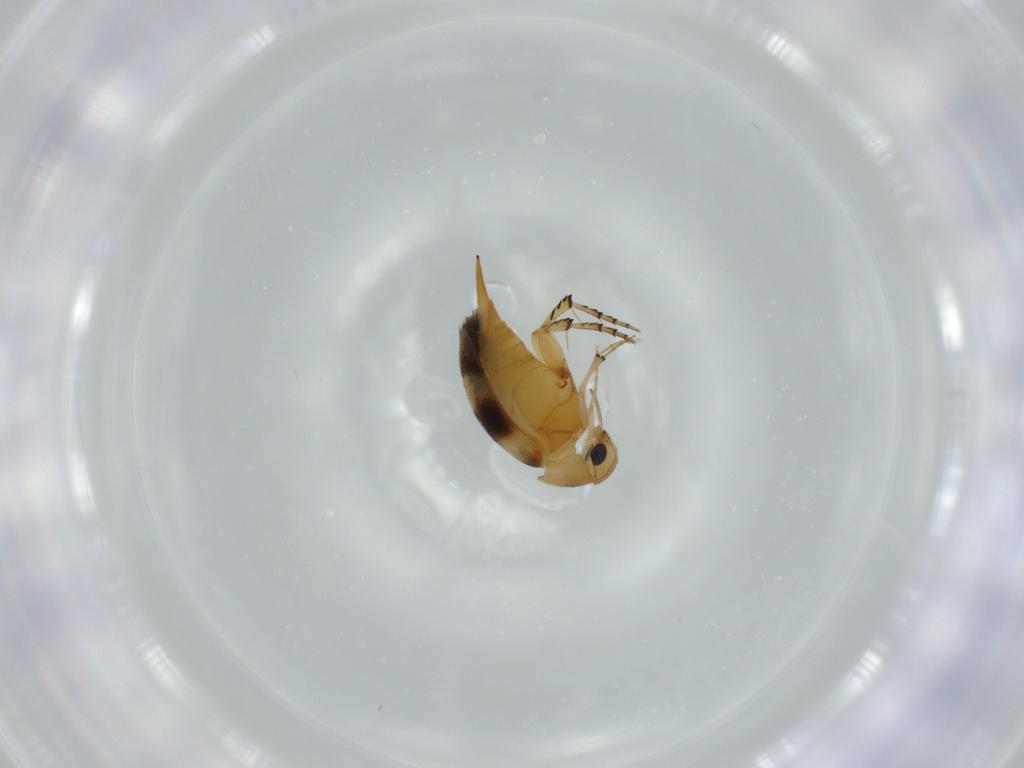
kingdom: Animalia
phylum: Arthropoda
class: Insecta
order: Coleoptera
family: Mordellidae
